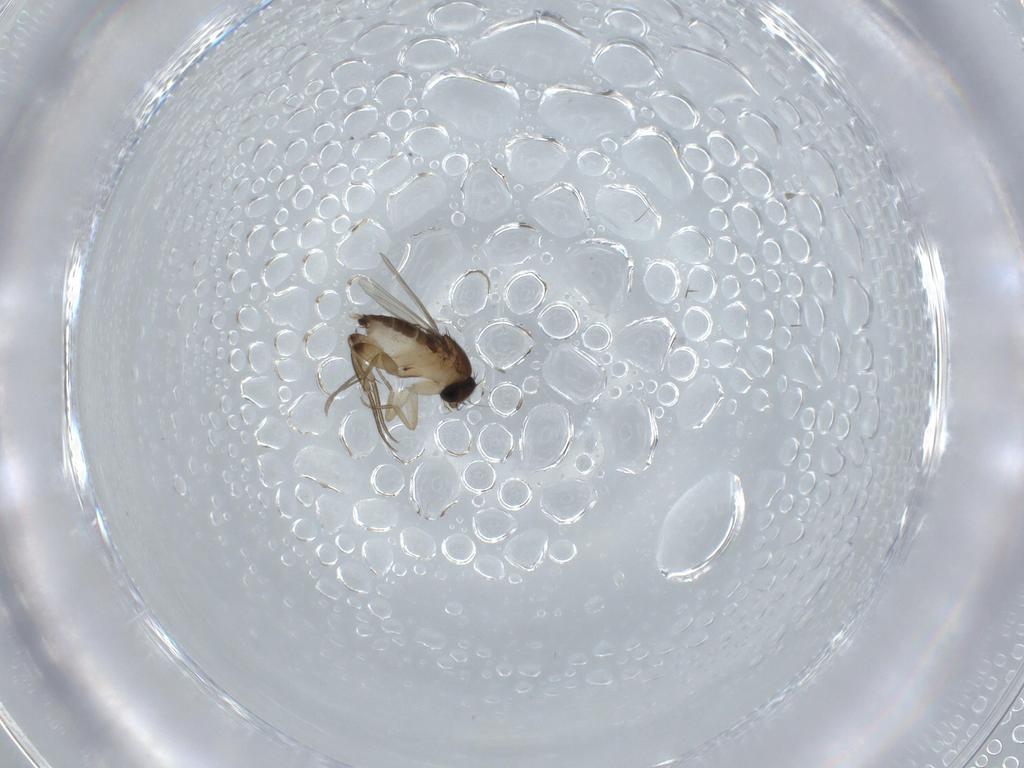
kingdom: Animalia
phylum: Arthropoda
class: Insecta
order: Diptera
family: Phoridae
